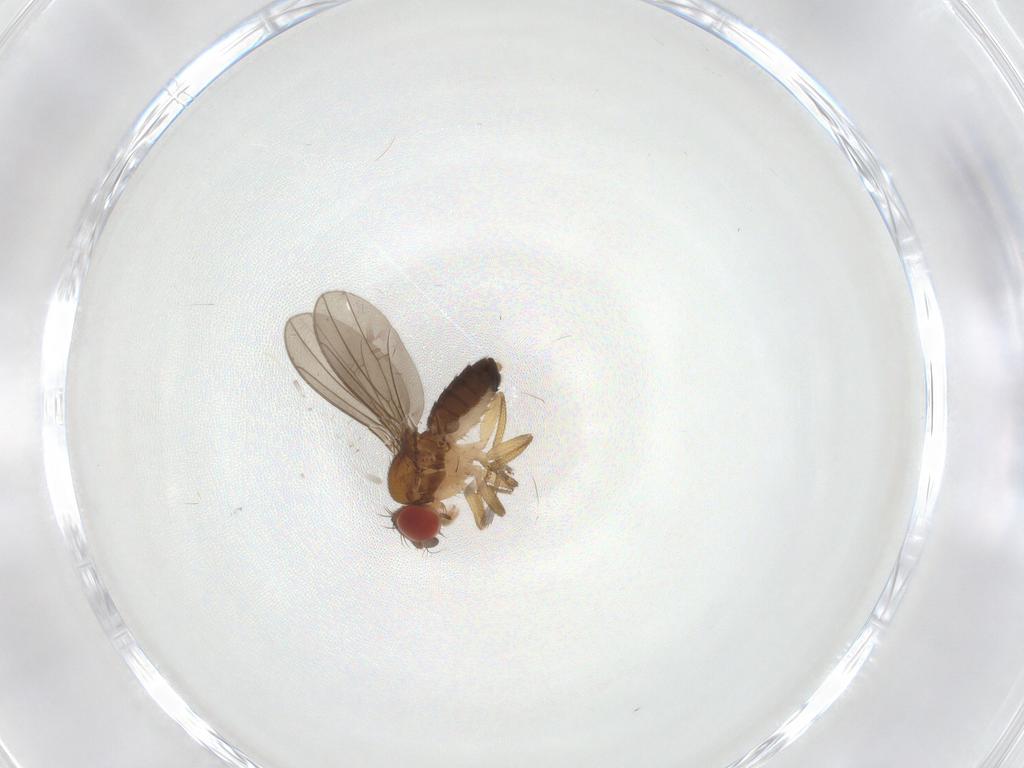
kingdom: Animalia
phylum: Arthropoda
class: Insecta
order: Diptera
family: Drosophilidae
